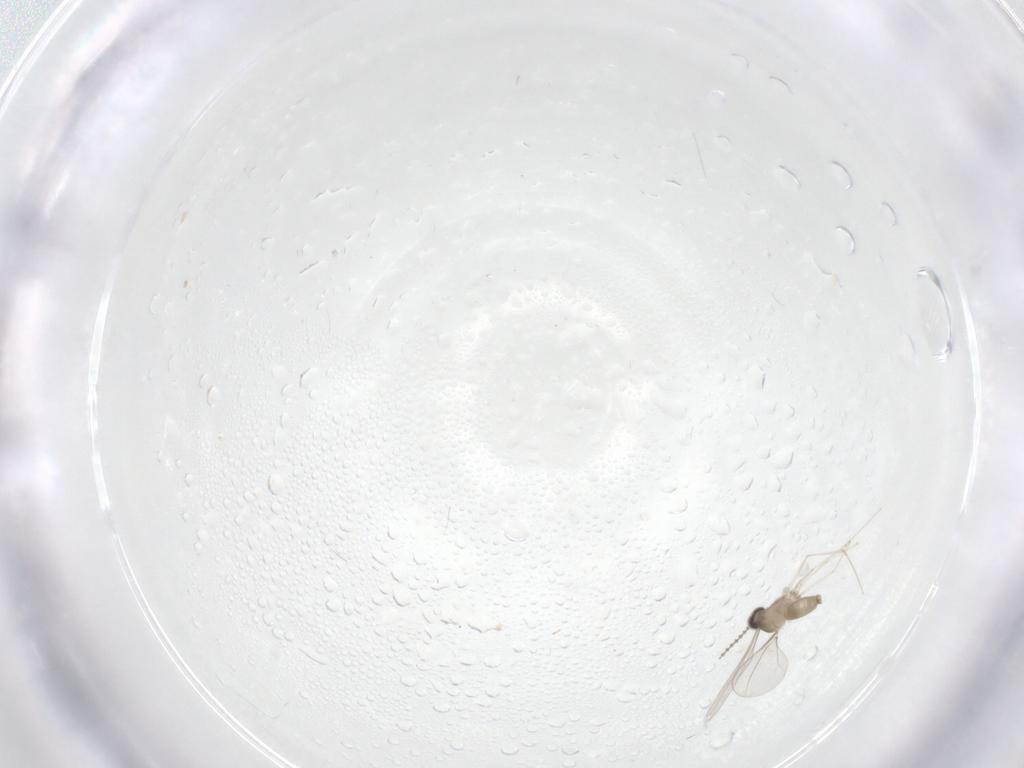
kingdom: Animalia
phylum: Arthropoda
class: Insecta
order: Diptera
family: Cecidomyiidae
